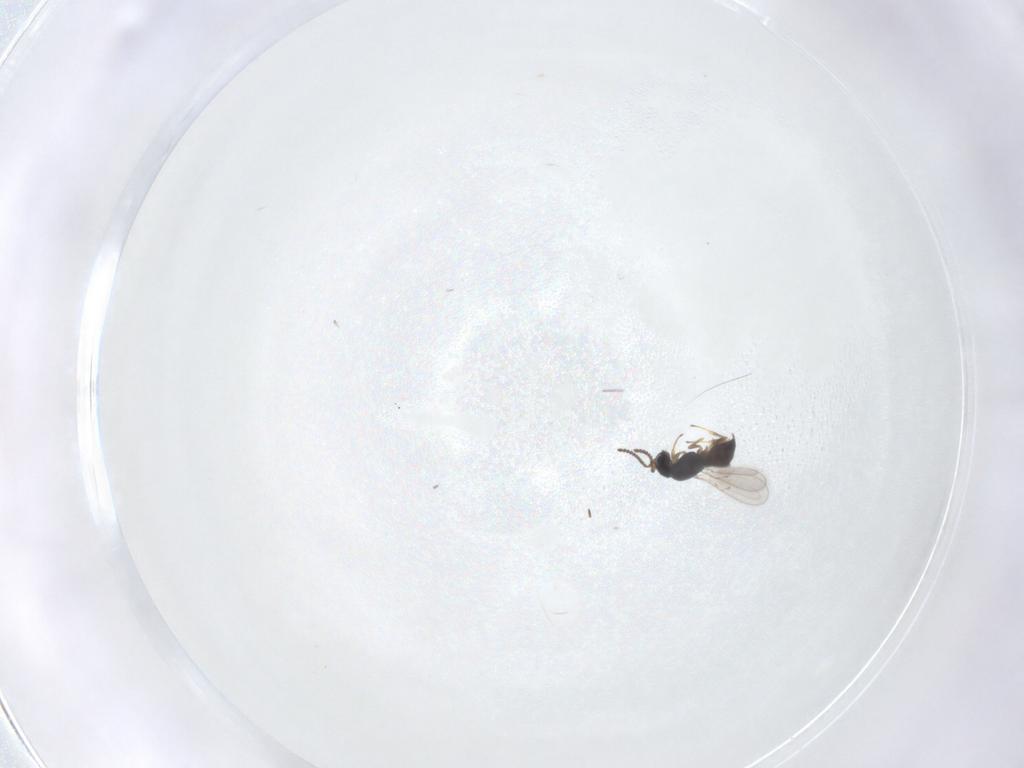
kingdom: Animalia
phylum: Arthropoda
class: Insecta
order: Hymenoptera
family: Scelionidae
